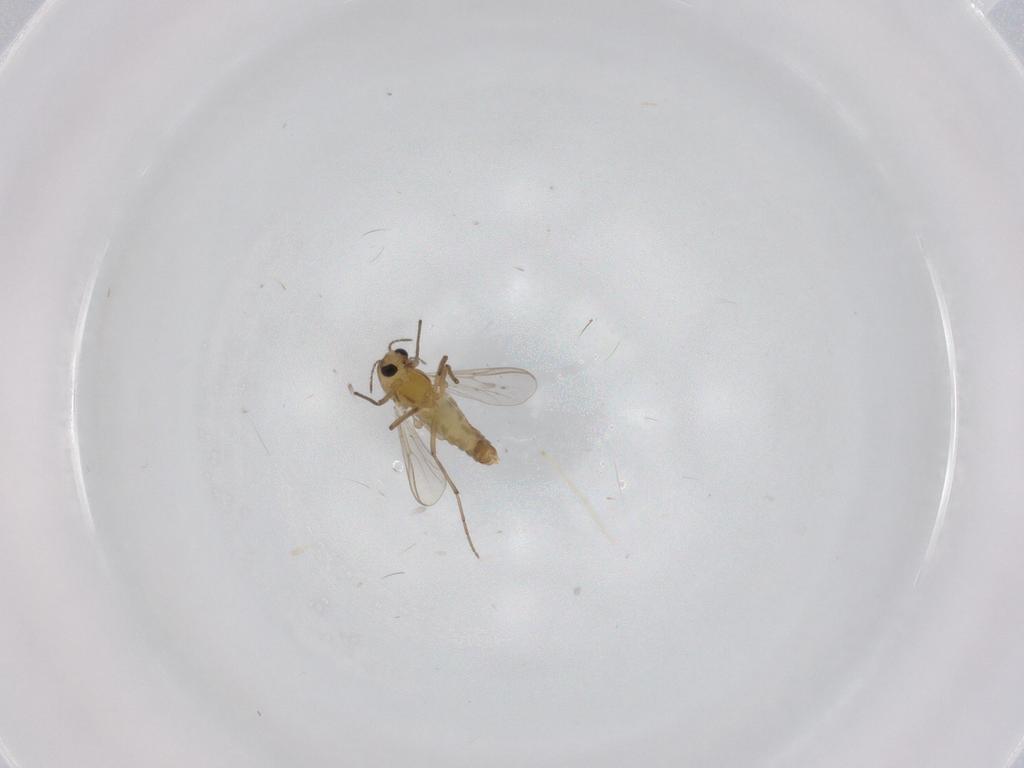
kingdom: Animalia
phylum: Arthropoda
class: Insecta
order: Diptera
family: Chironomidae
